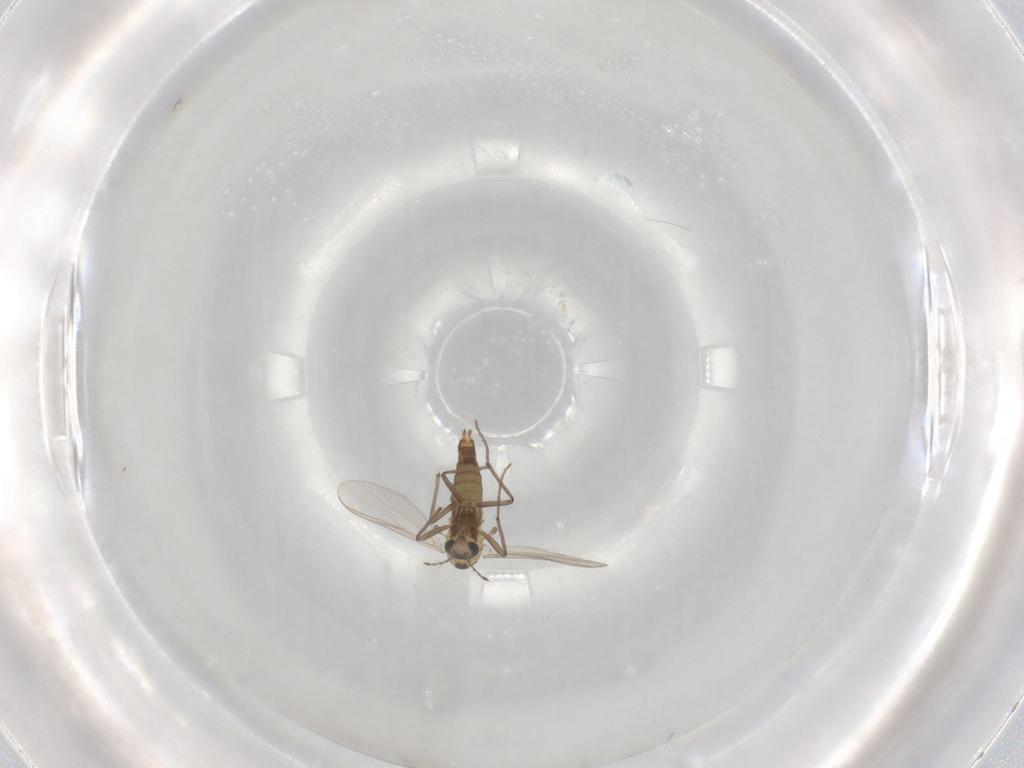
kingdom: Animalia
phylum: Arthropoda
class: Insecta
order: Diptera
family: Chironomidae
